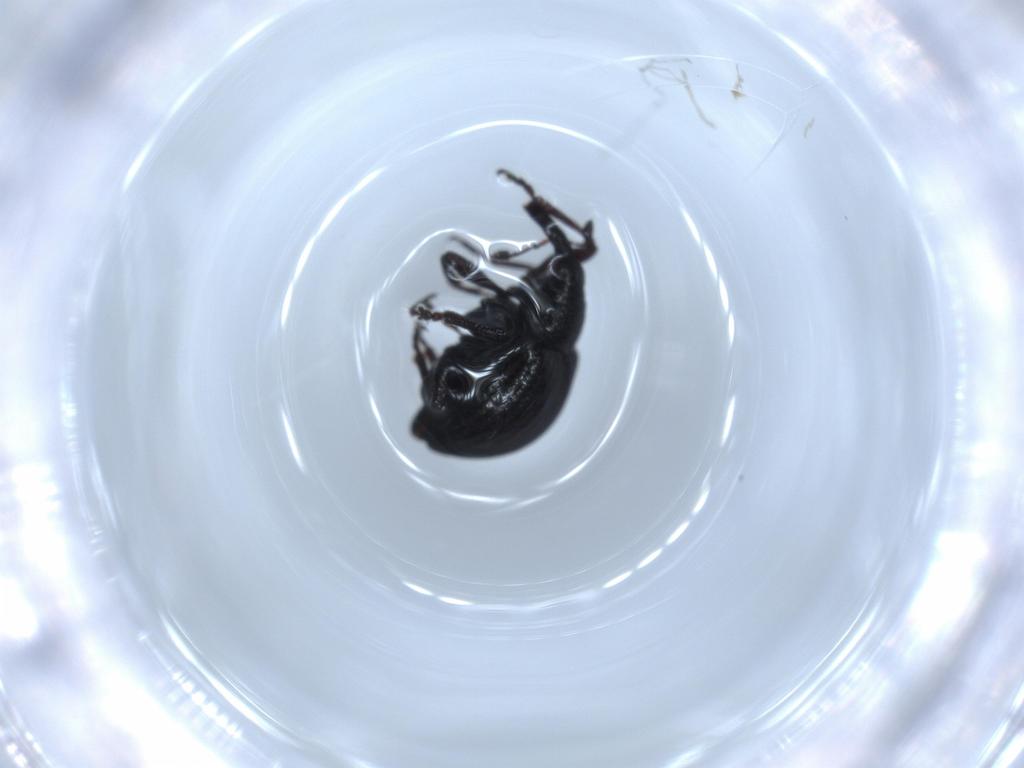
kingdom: Animalia
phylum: Arthropoda
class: Insecta
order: Coleoptera
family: Brentidae
